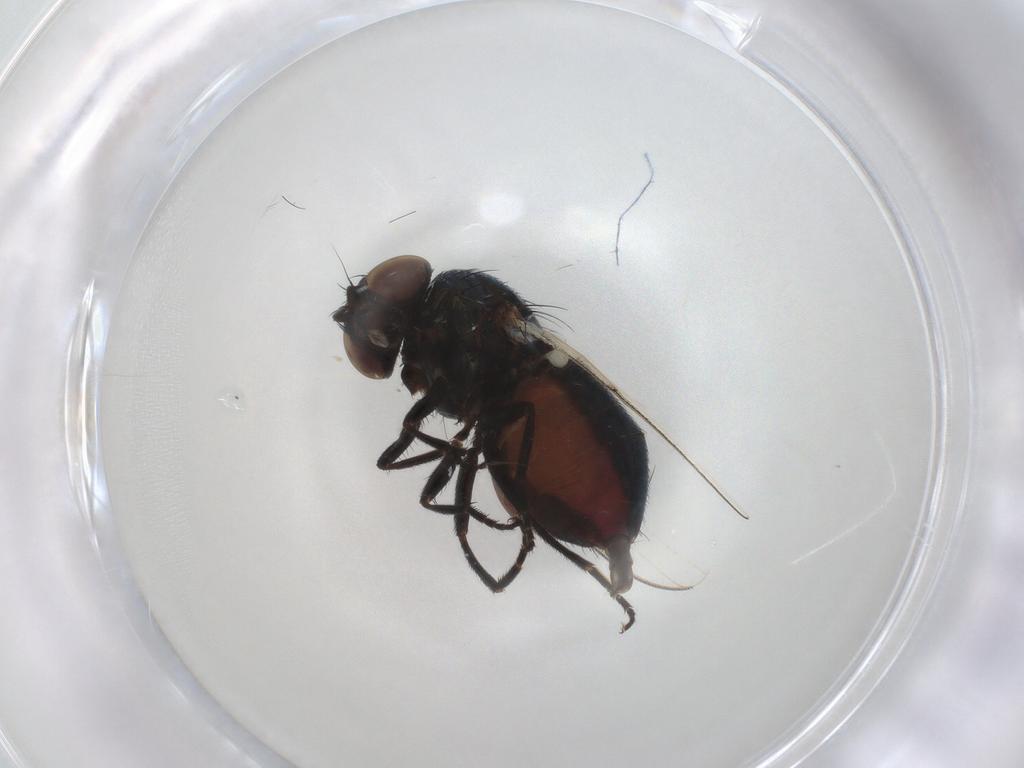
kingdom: Animalia
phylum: Arthropoda
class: Insecta
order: Diptera
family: Milichiidae
